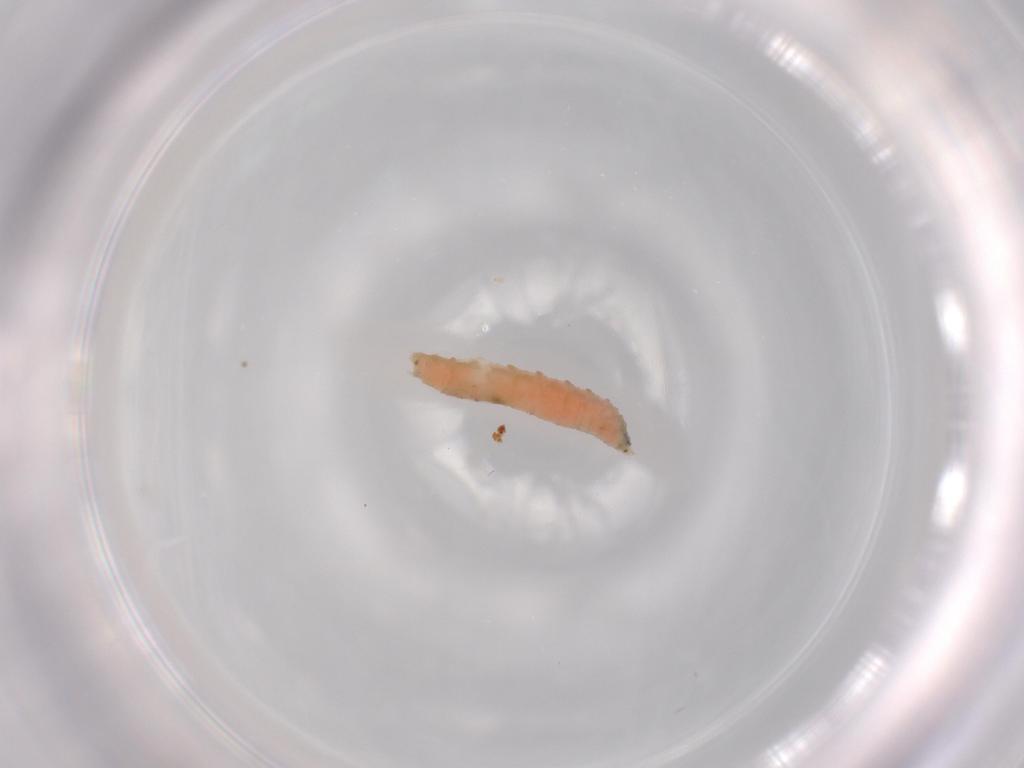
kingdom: Animalia
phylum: Arthropoda
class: Insecta
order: Diptera
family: Cecidomyiidae
